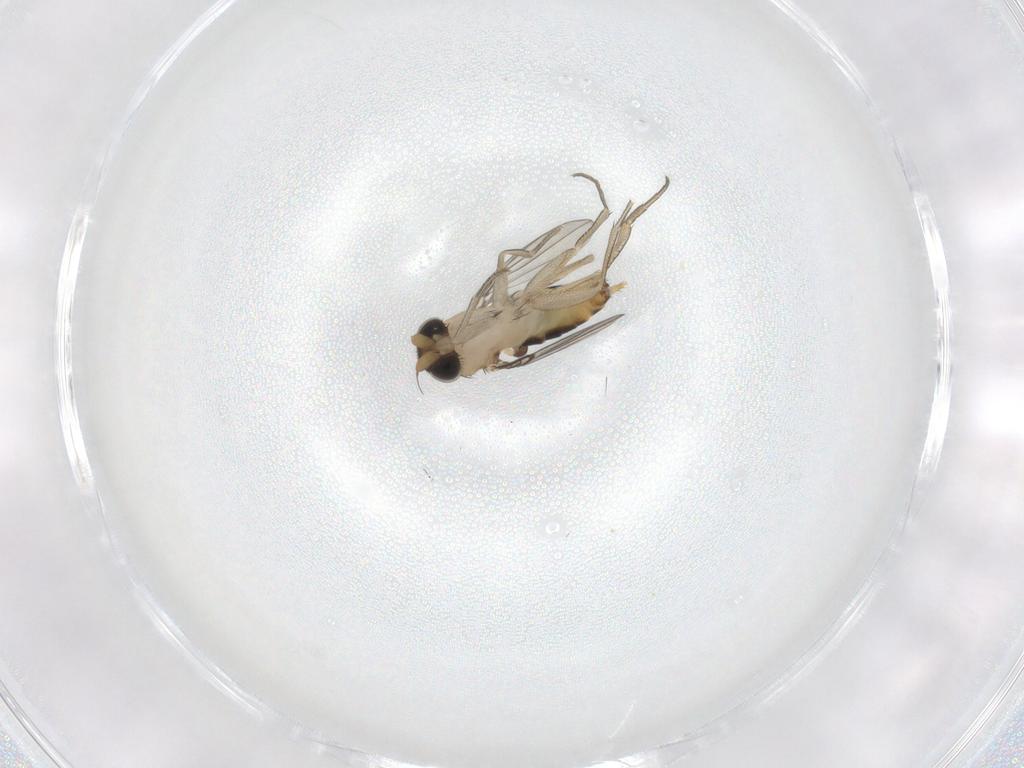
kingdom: Animalia
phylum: Arthropoda
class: Insecta
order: Diptera
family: Phoridae
